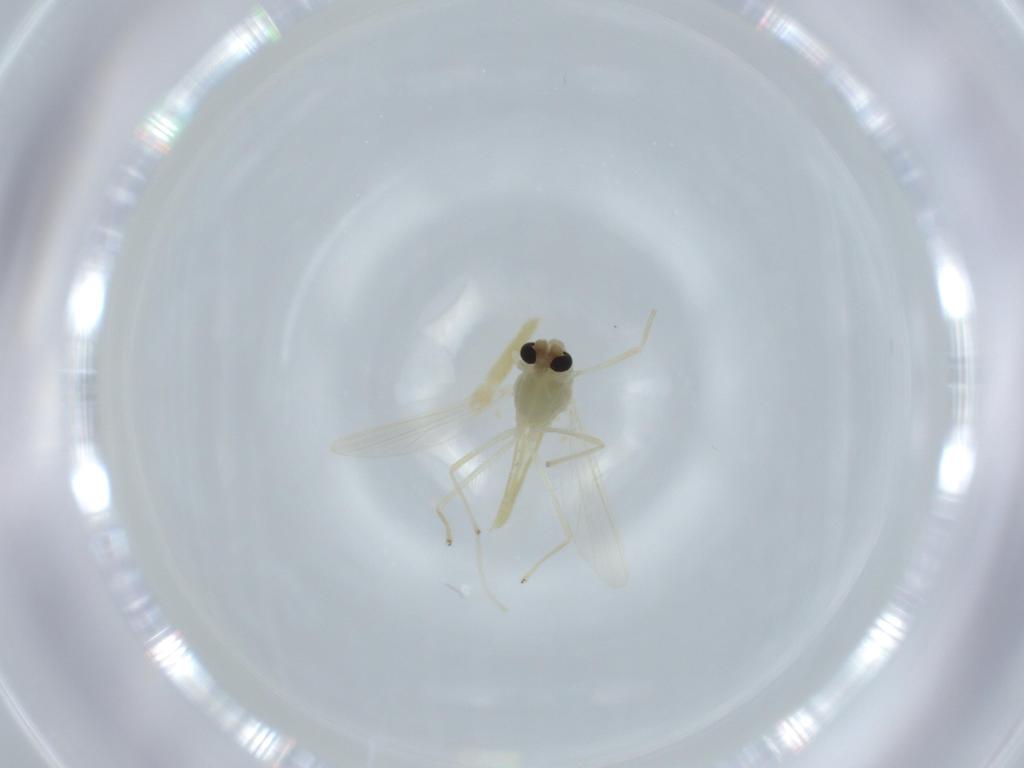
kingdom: Animalia
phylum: Arthropoda
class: Insecta
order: Diptera
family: Chironomidae
